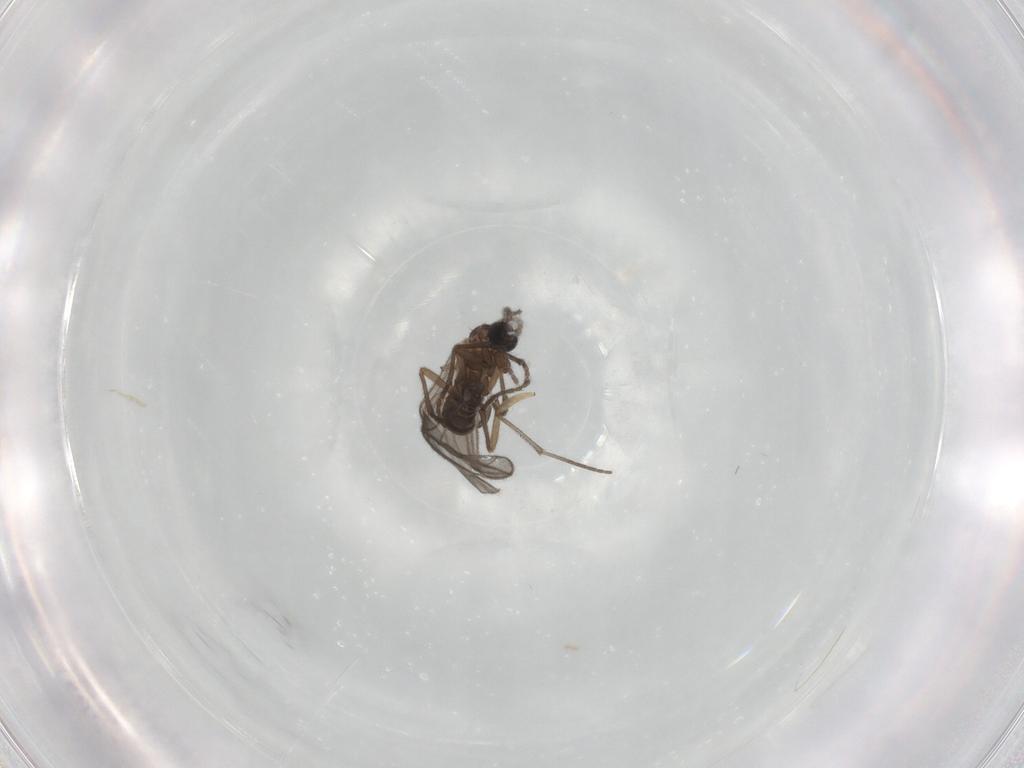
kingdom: Animalia
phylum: Arthropoda
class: Insecta
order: Diptera
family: Sciaridae
